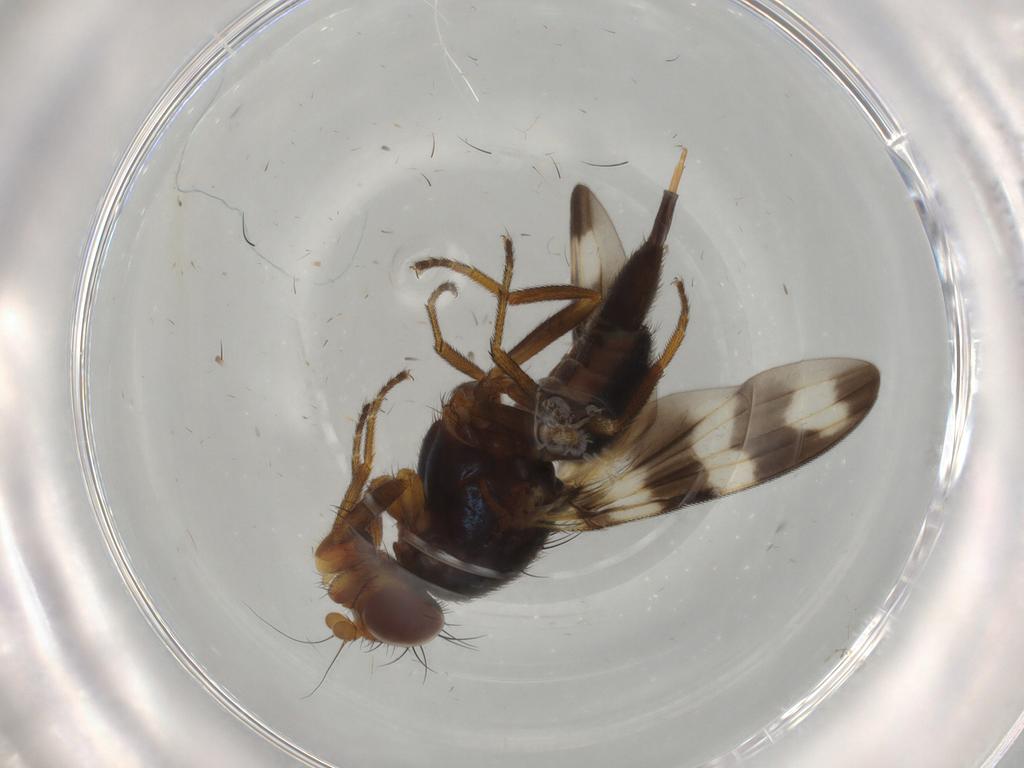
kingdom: Animalia
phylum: Arthropoda
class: Insecta
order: Diptera
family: Ulidiidae
